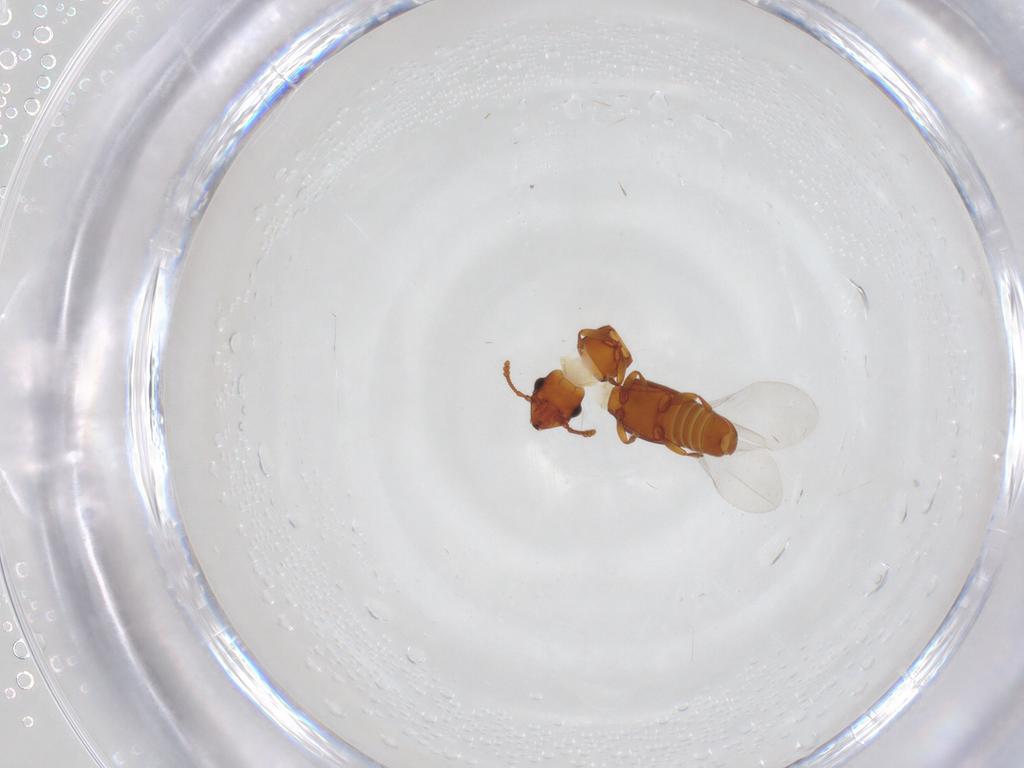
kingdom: Animalia
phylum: Arthropoda
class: Insecta
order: Coleoptera
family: Smicripidae
